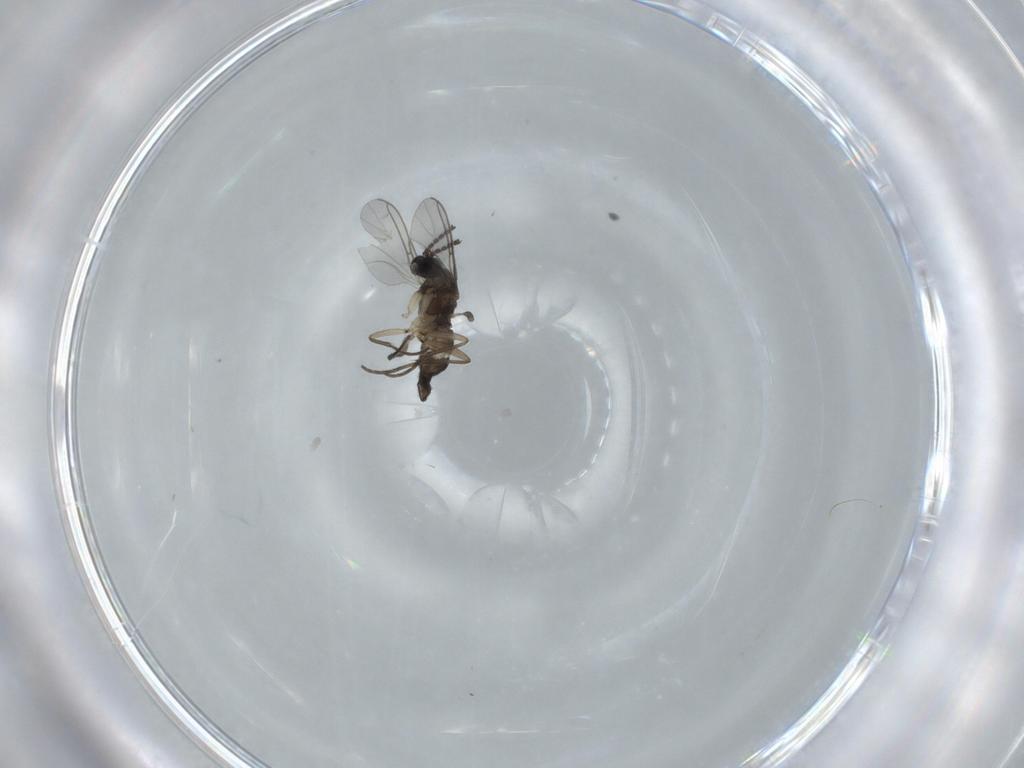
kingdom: Animalia
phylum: Arthropoda
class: Insecta
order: Diptera
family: Sciaridae
